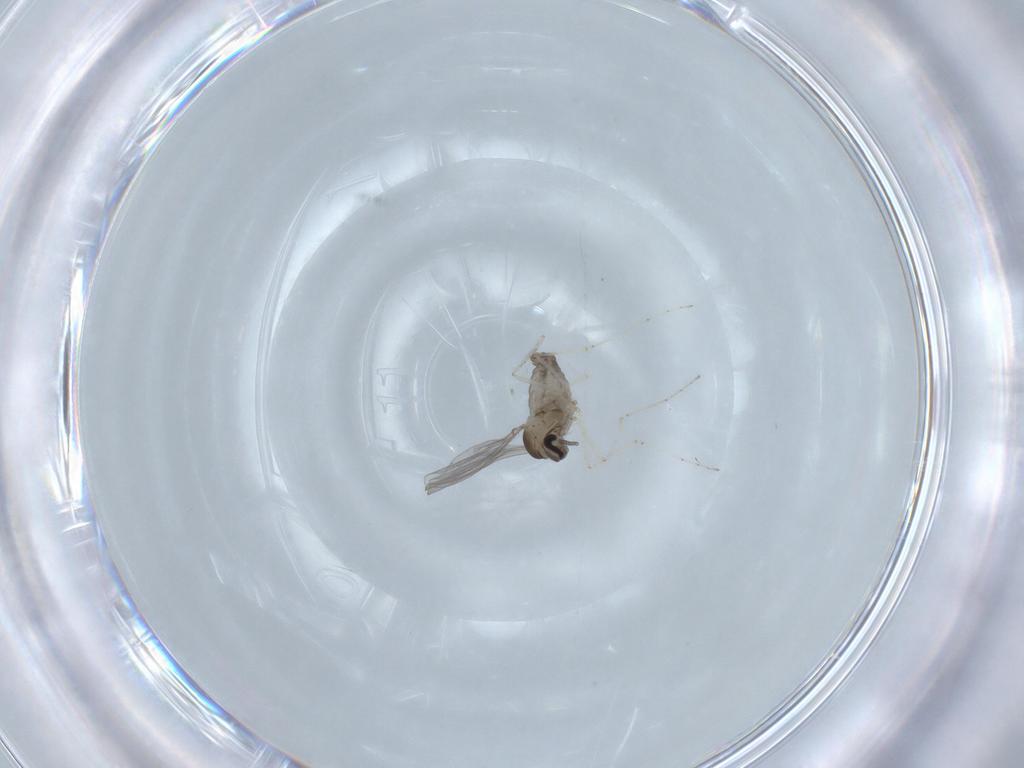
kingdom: Animalia
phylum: Arthropoda
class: Insecta
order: Diptera
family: Cecidomyiidae
